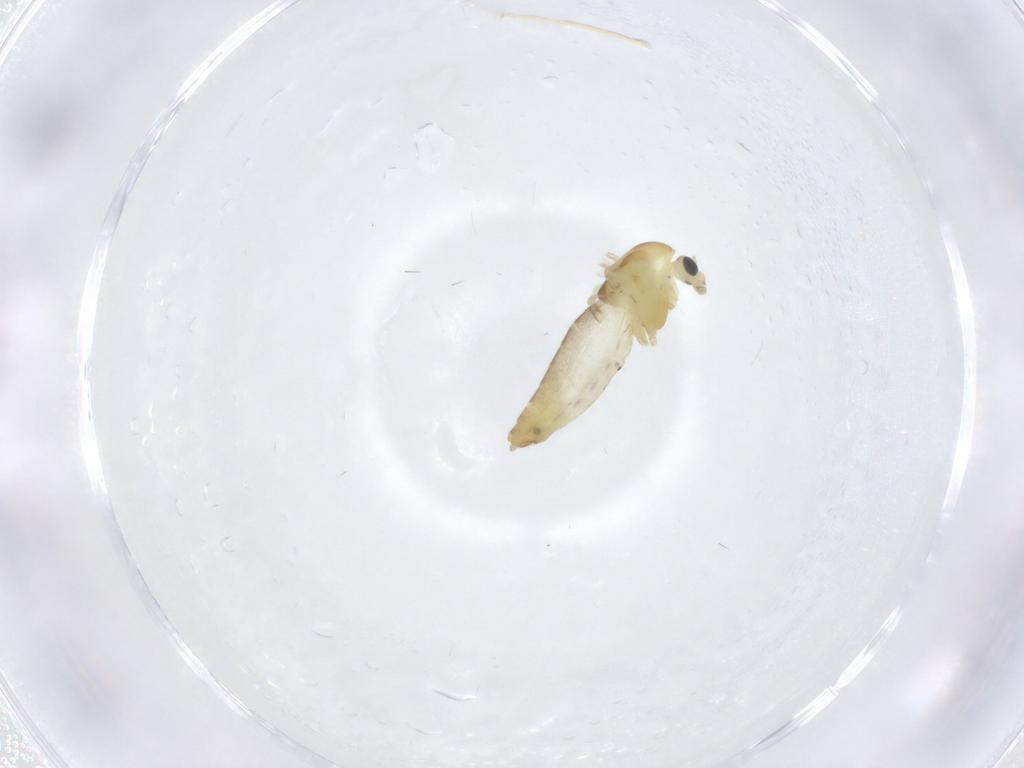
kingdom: Animalia
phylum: Arthropoda
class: Insecta
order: Diptera
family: Chironomidae
